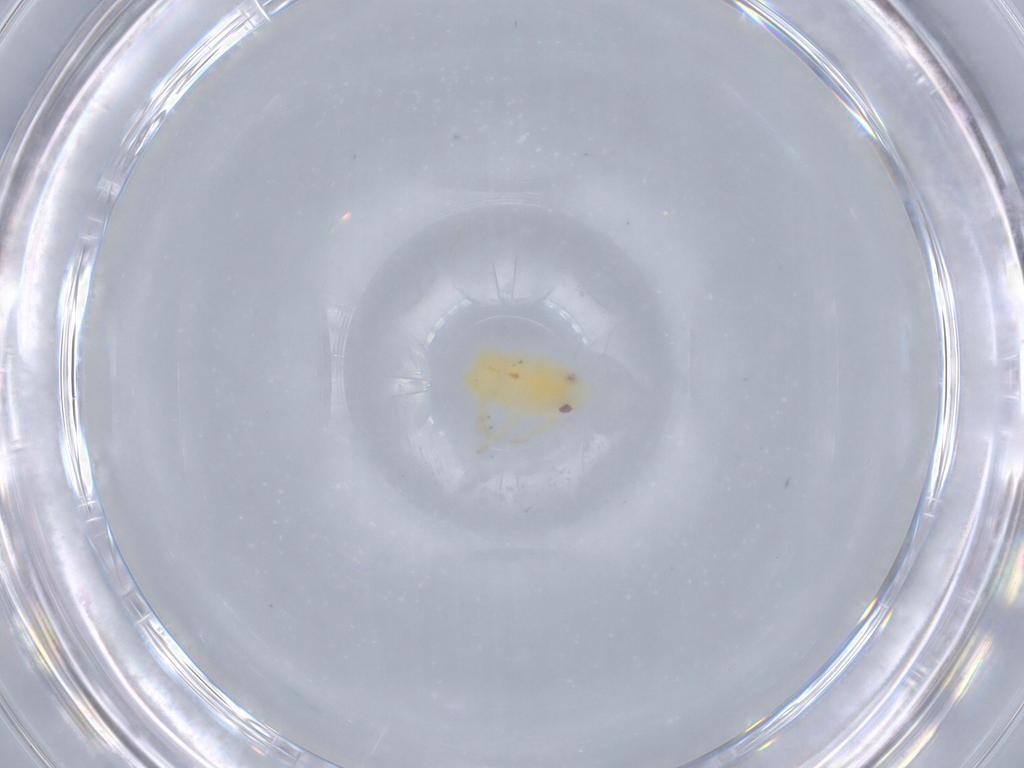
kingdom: Animalia
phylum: Arthropoda
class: Insecta
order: Hemiptera
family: Flatidae
